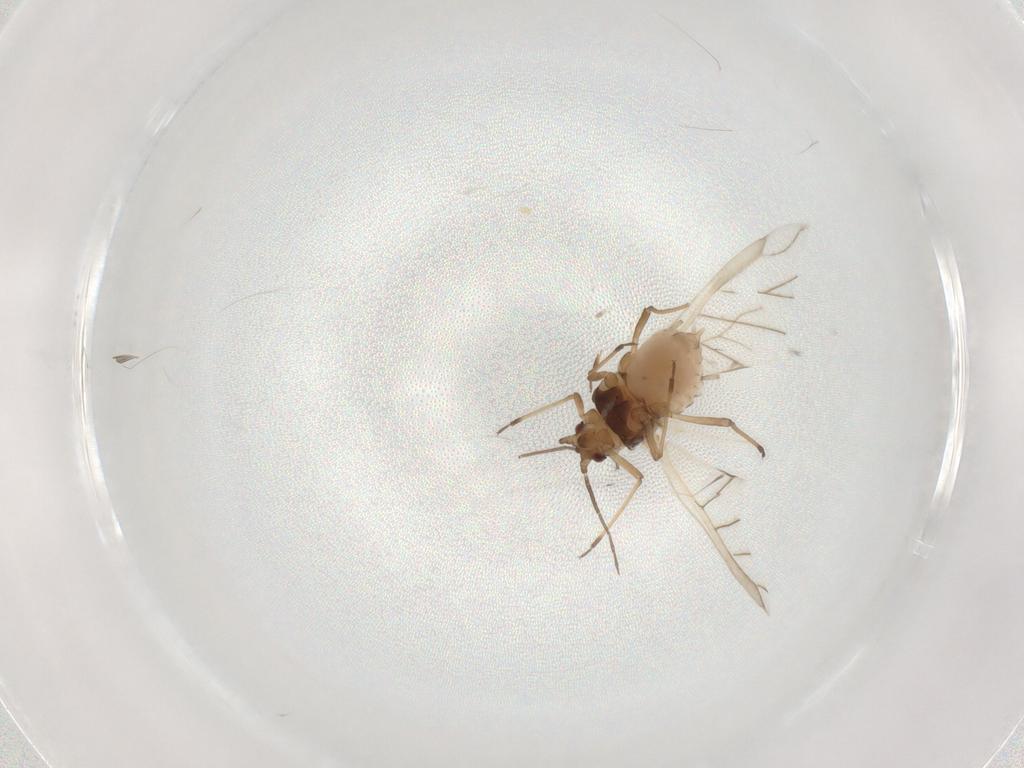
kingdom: Animalia
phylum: Arthropoda
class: Insecta
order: Hemiptera
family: Aphididae
